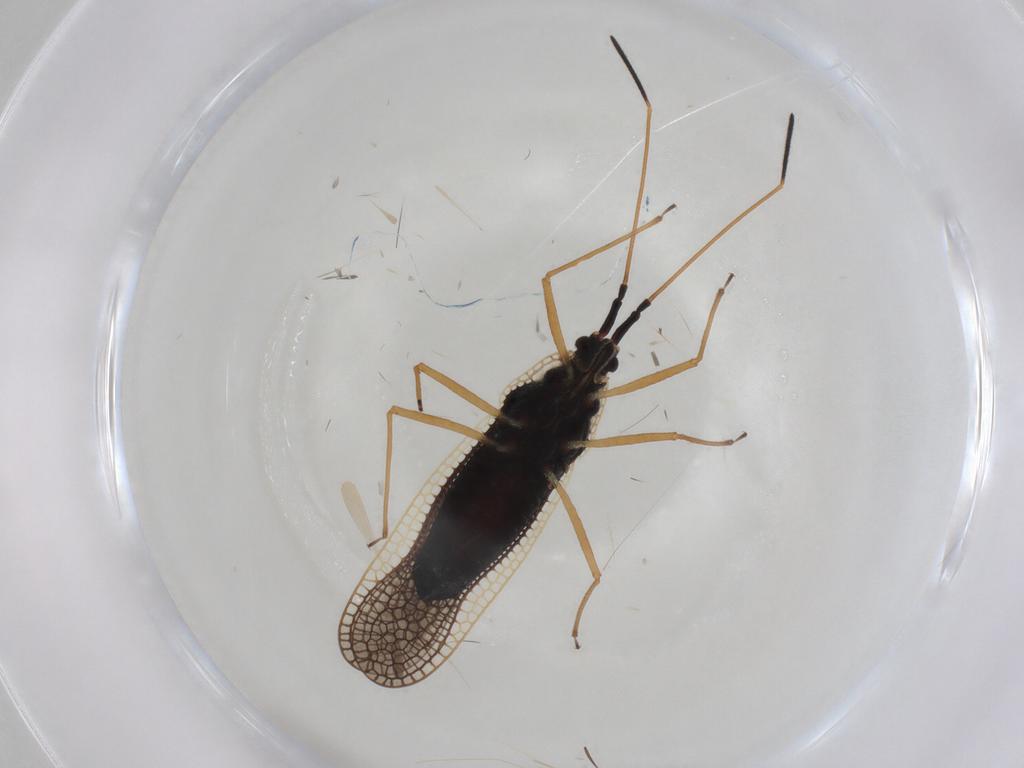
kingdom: Animalia
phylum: Arthropoda
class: Insecta
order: Hemiptera
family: Tingidae
